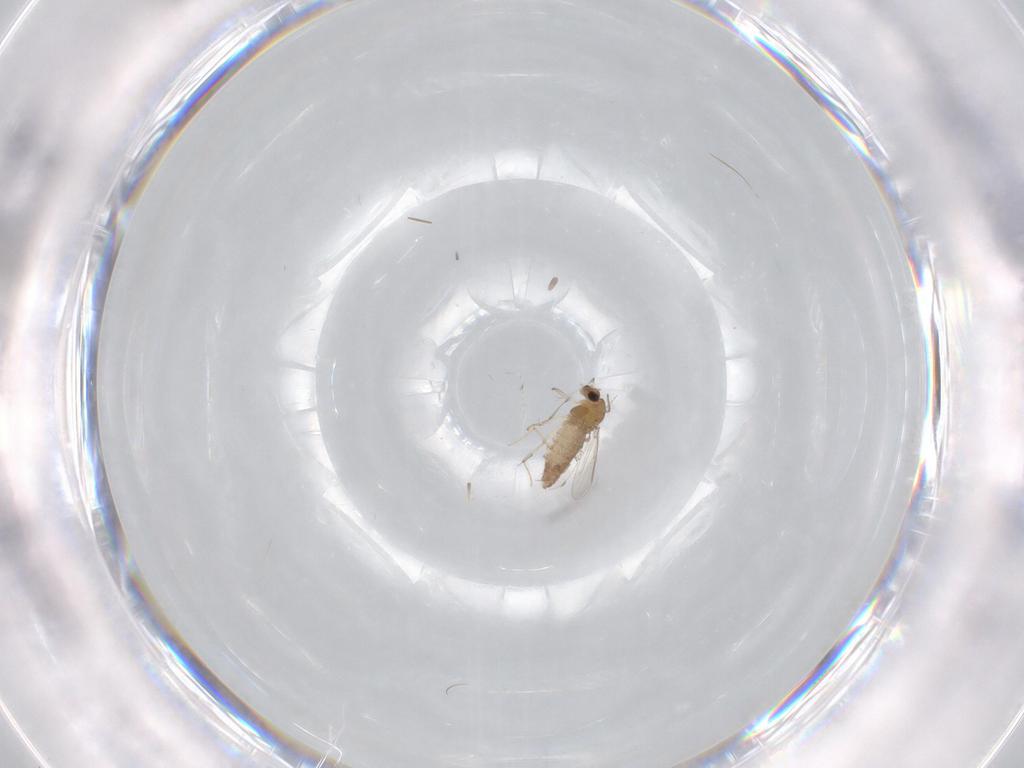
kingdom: Animalia
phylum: Arthropoda
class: Insecta
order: Diptera
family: Chironomidae
